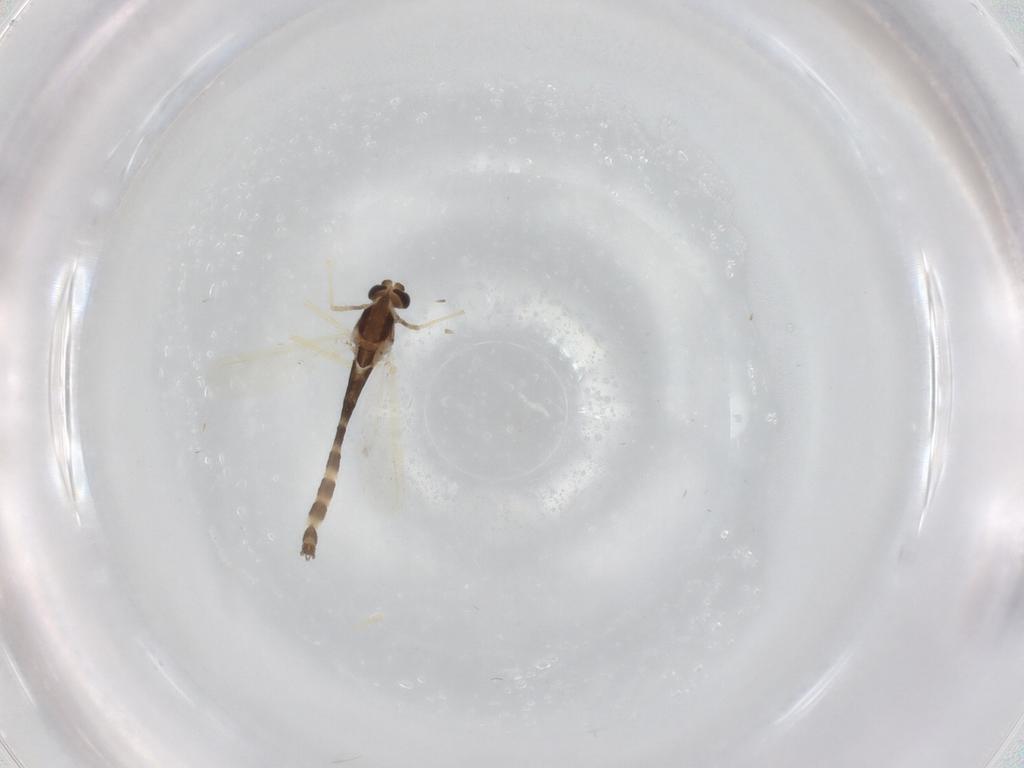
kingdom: Animalia
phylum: Arthropoda
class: Insecta
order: Diptera
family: Chironomidae
